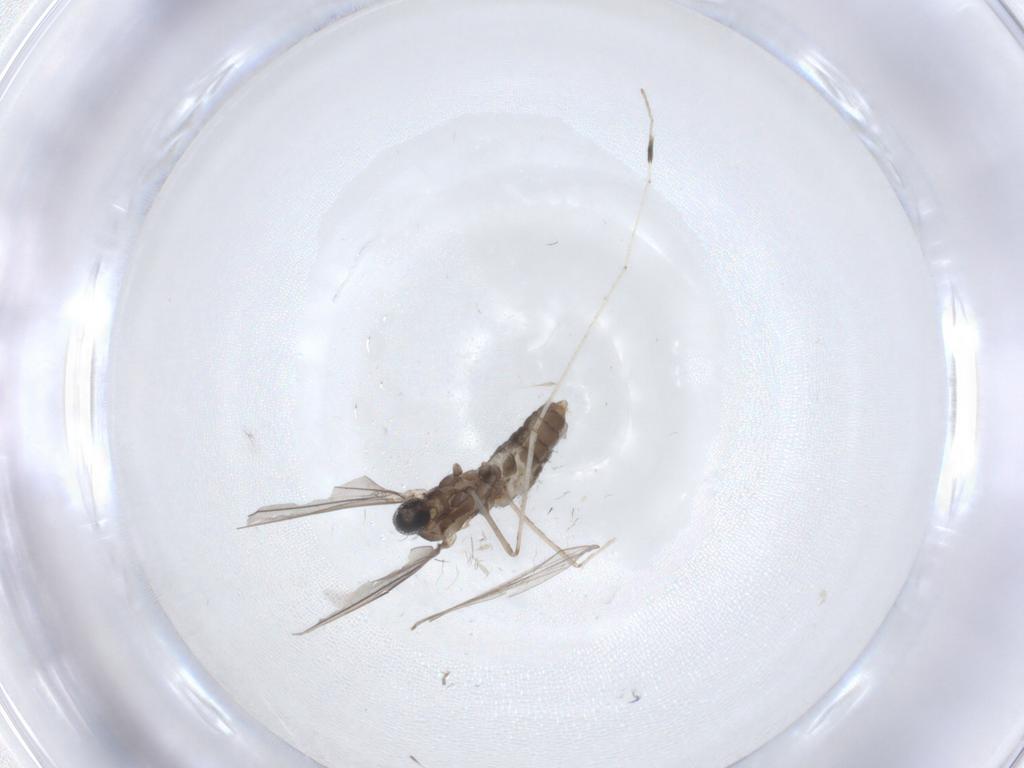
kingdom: Animalia
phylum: Arthropoda
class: Insecta
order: Diptera
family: Cecidomyiidae
